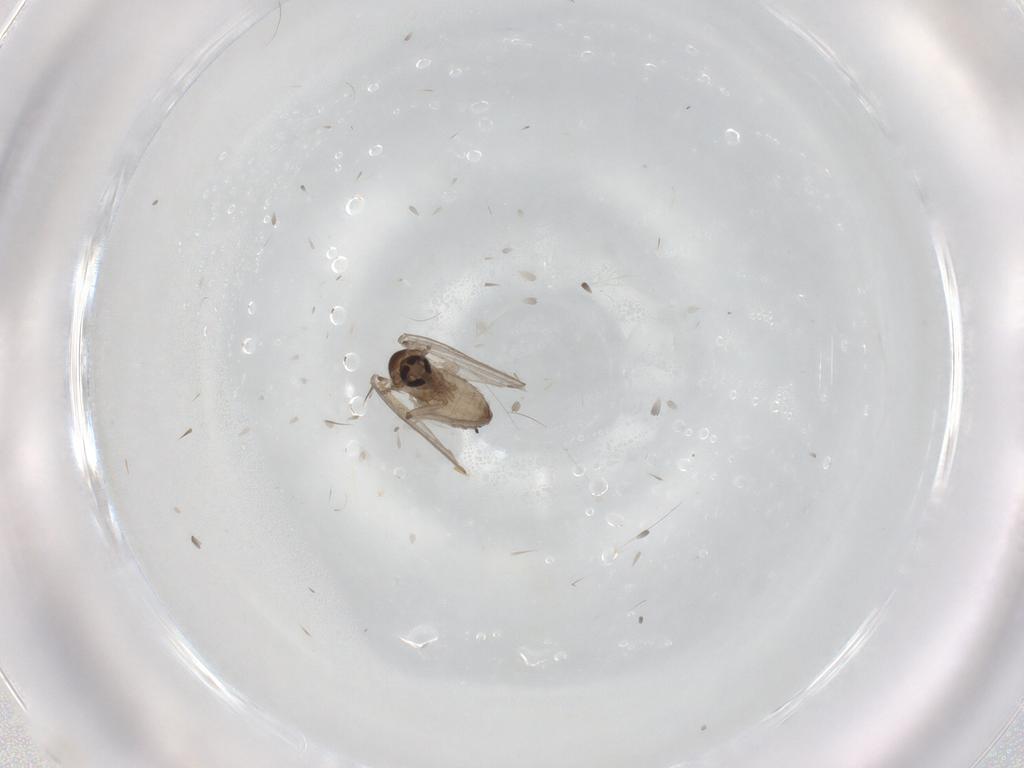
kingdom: Animalia
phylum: Arthropoda
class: Insecta
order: Diptera
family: Psychodidae
